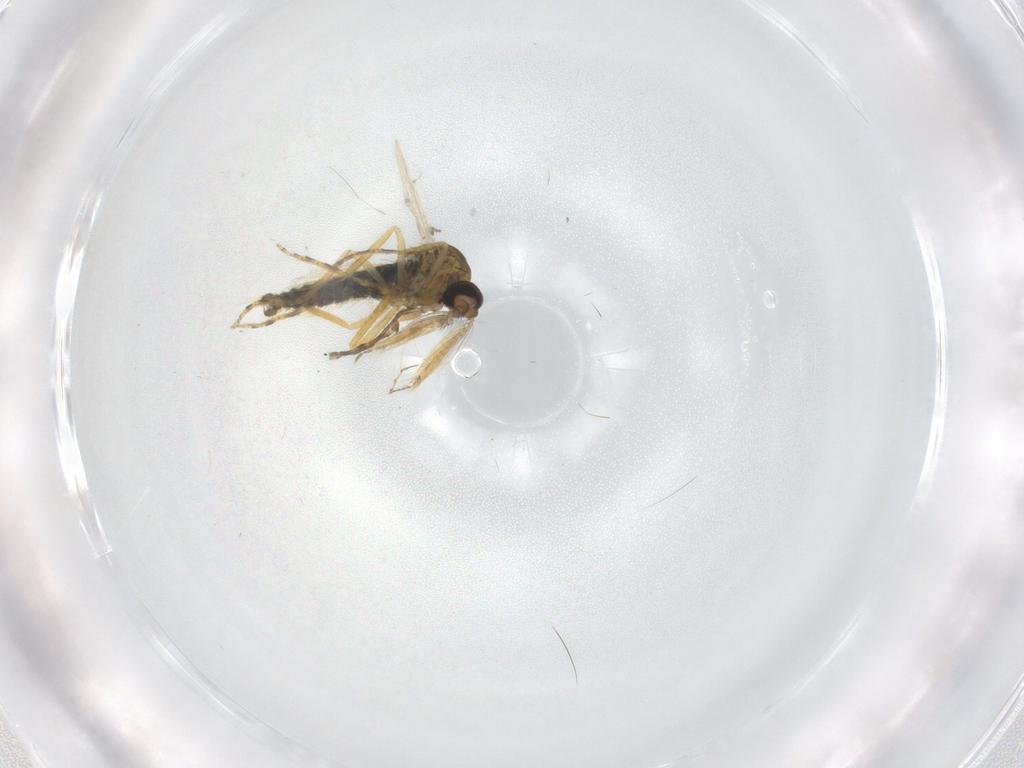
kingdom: Animalia
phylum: Arthropoda
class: Insecta
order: Diptera
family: Ceratopogonidae
